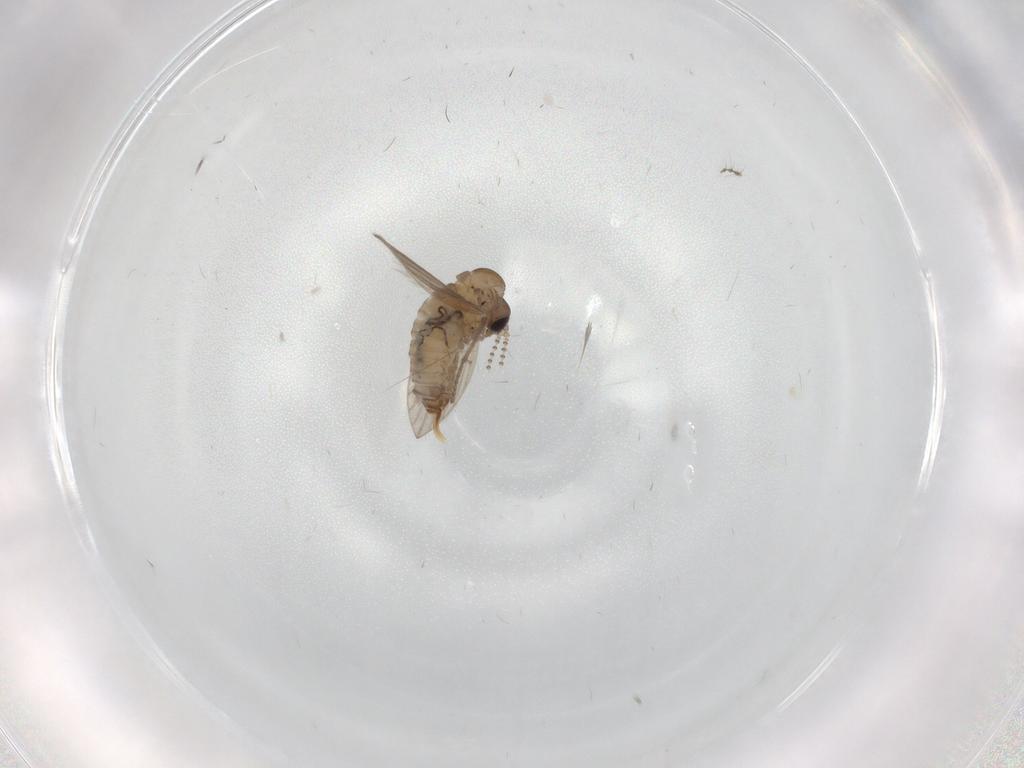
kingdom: Animalia
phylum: Arthropoda
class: Insecta
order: Diptera
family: Psychodidae
